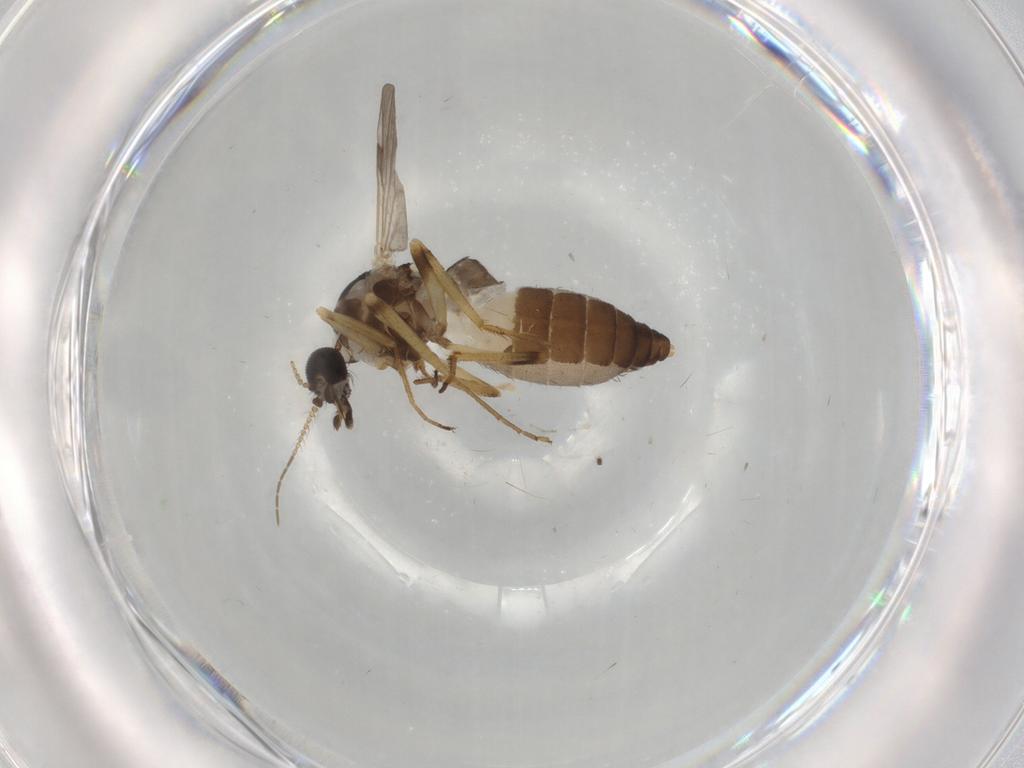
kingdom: Animalia
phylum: Arthropoda
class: Insecta
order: Diptera
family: Ceratopogonidae
